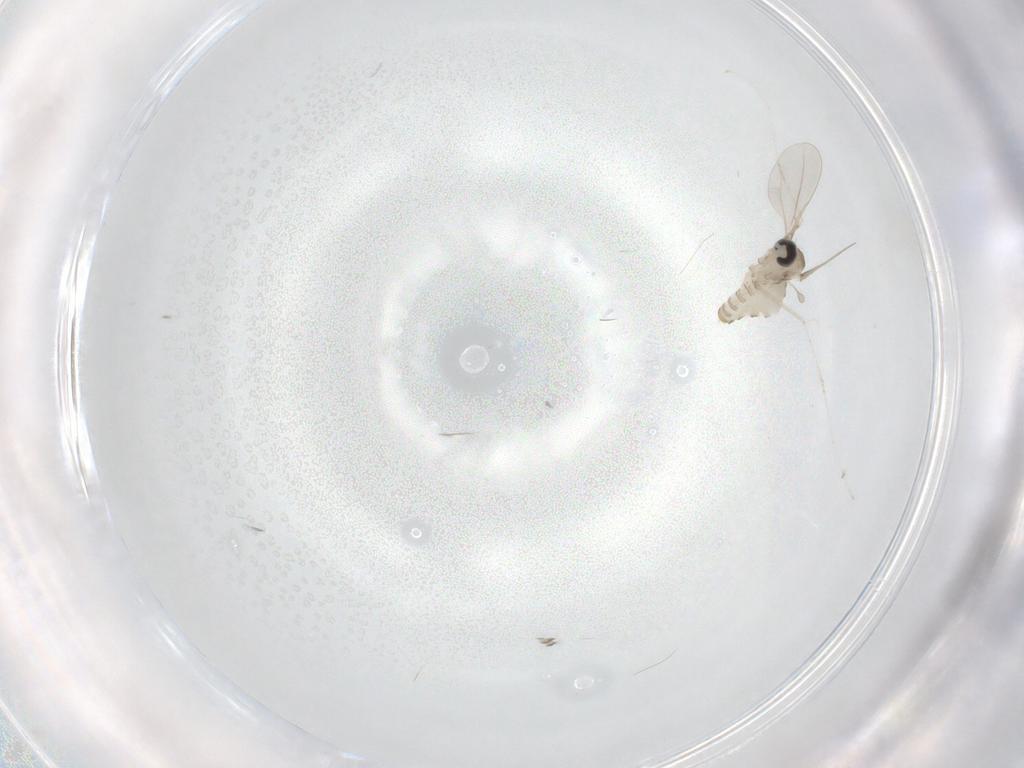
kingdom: Animalia
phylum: Arthropoda
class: Insecta
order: Diptera
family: Cecidomyiidae
